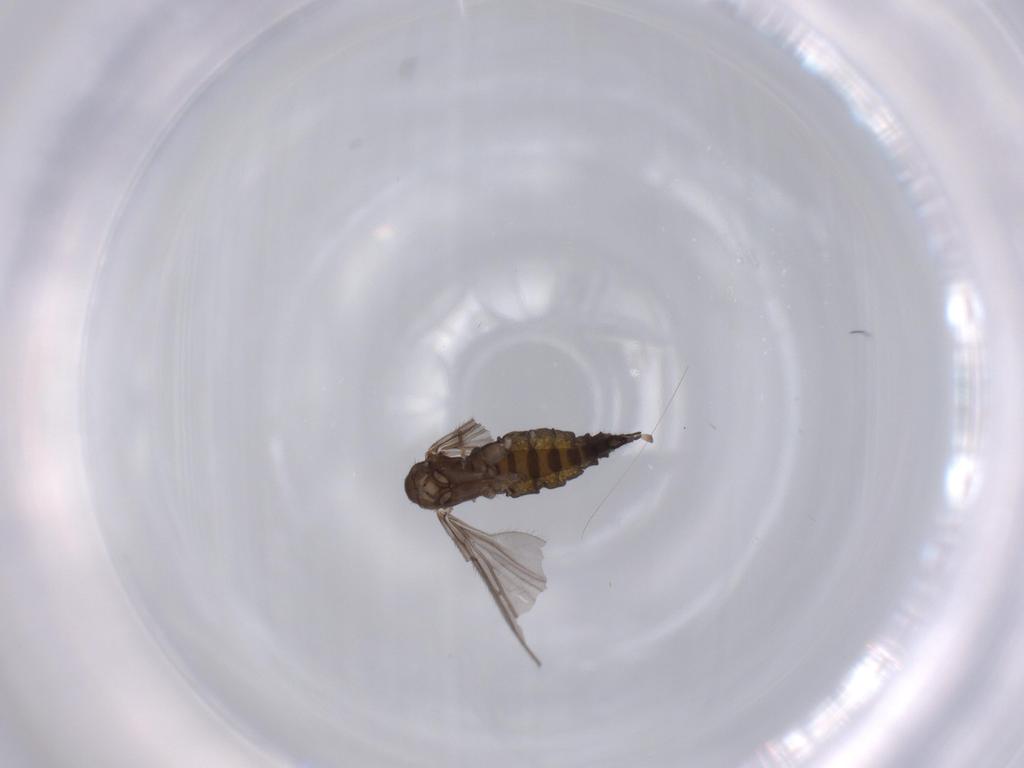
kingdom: Animalia
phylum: Arthropoda
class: Insecta
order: Diptera
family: Sciaridae
